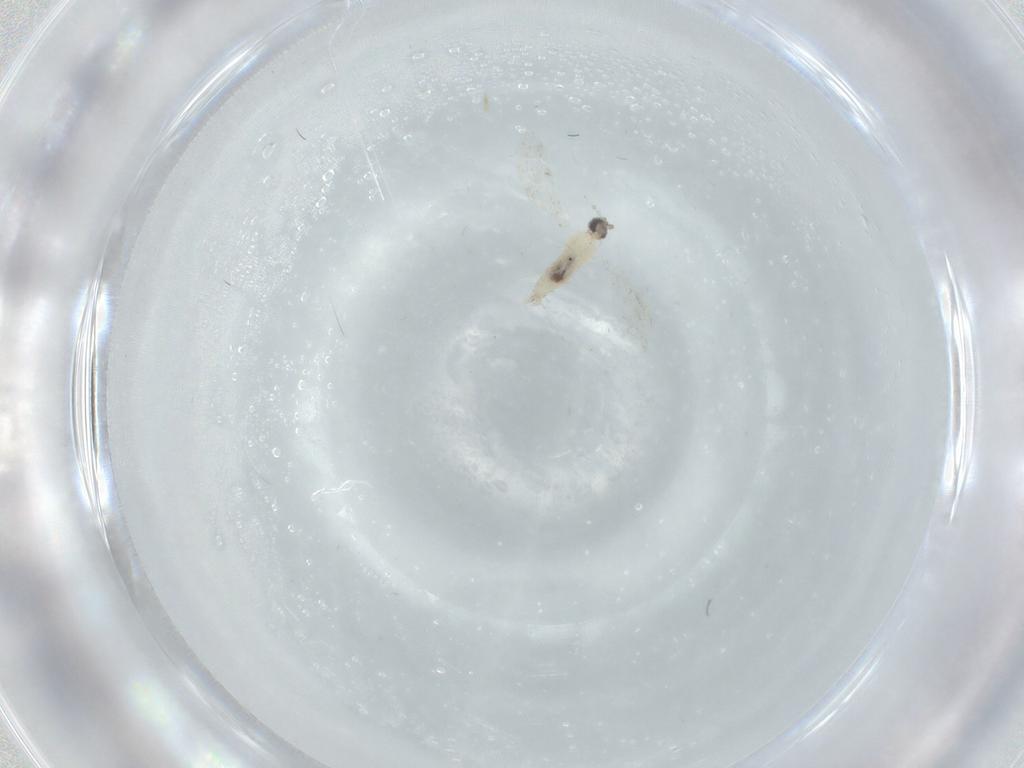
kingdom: Animalia
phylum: Arthropoda
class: Insecta
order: Diptera
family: Cecidomyiidae
